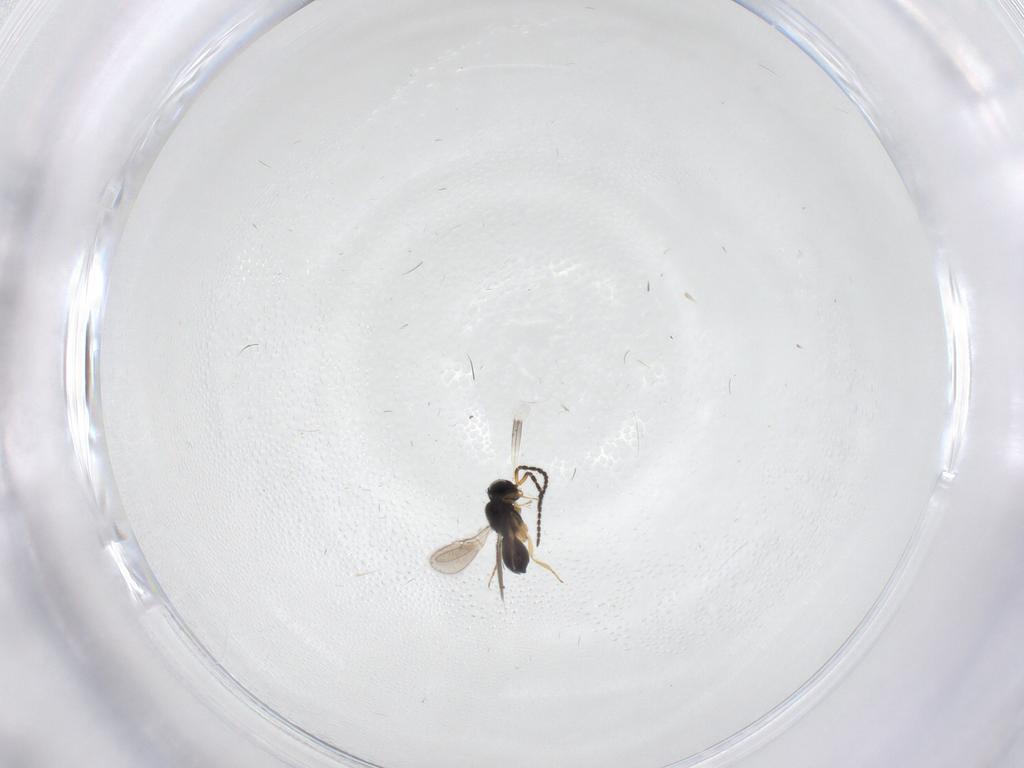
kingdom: Animalia
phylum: Arthropoda
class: Insecta
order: Hymenoptera
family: Scelionidae
